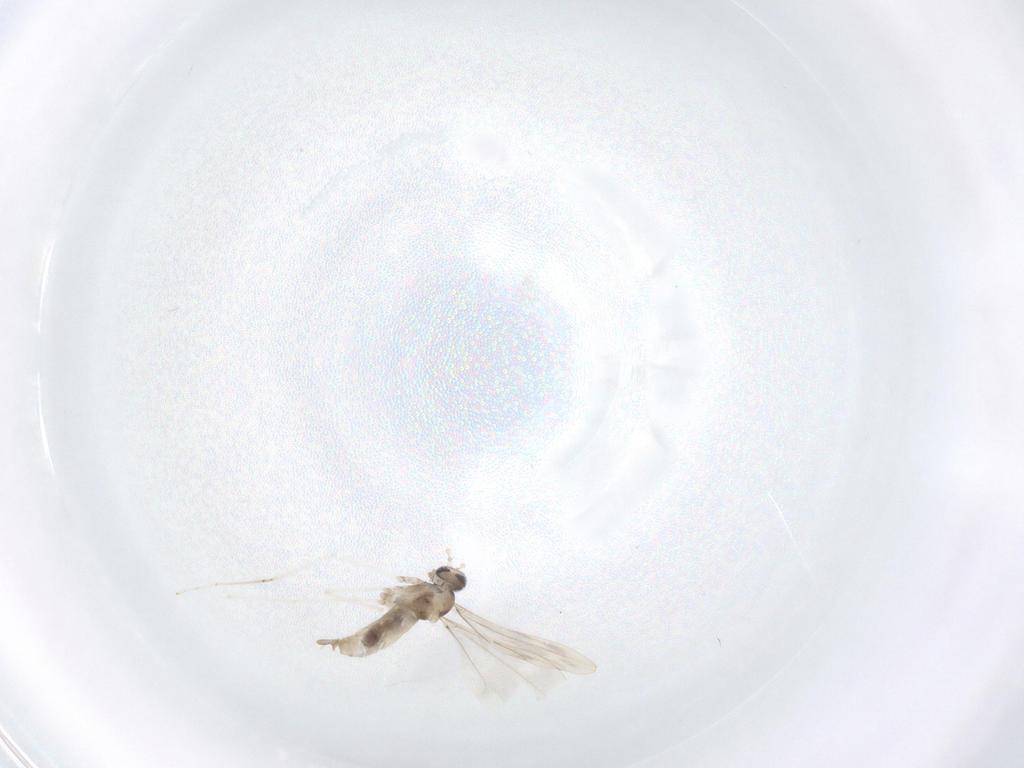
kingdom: Animalia
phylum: Arthropoda
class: Insecta
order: Diptera
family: Cecidomyiidae
